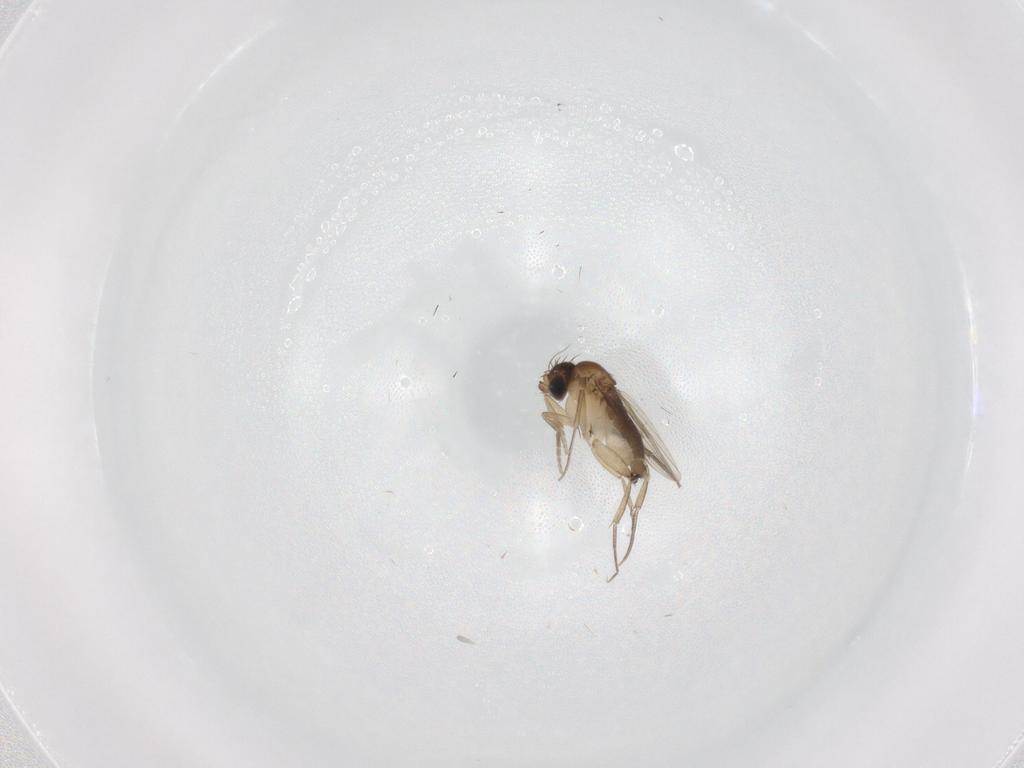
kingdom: Animalia
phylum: Arthropoda
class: Insecta
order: Diptera
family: Phoridae
